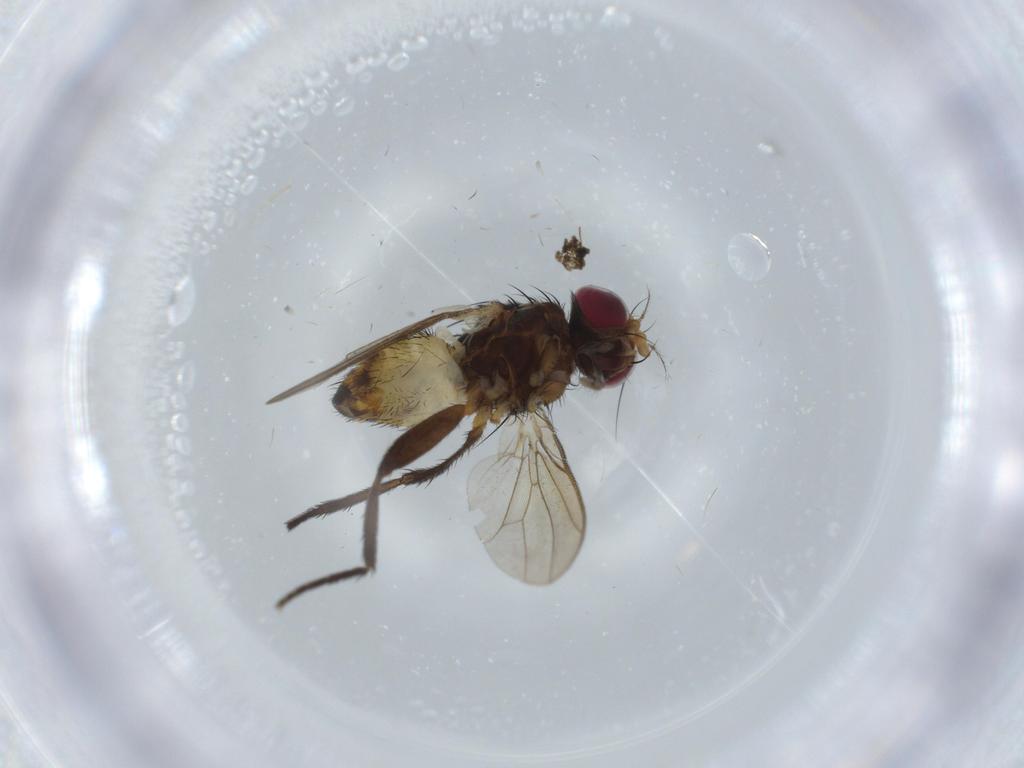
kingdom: Animalia
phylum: Arthropoda
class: Insecta
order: Diptera
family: Anthomyiidae
